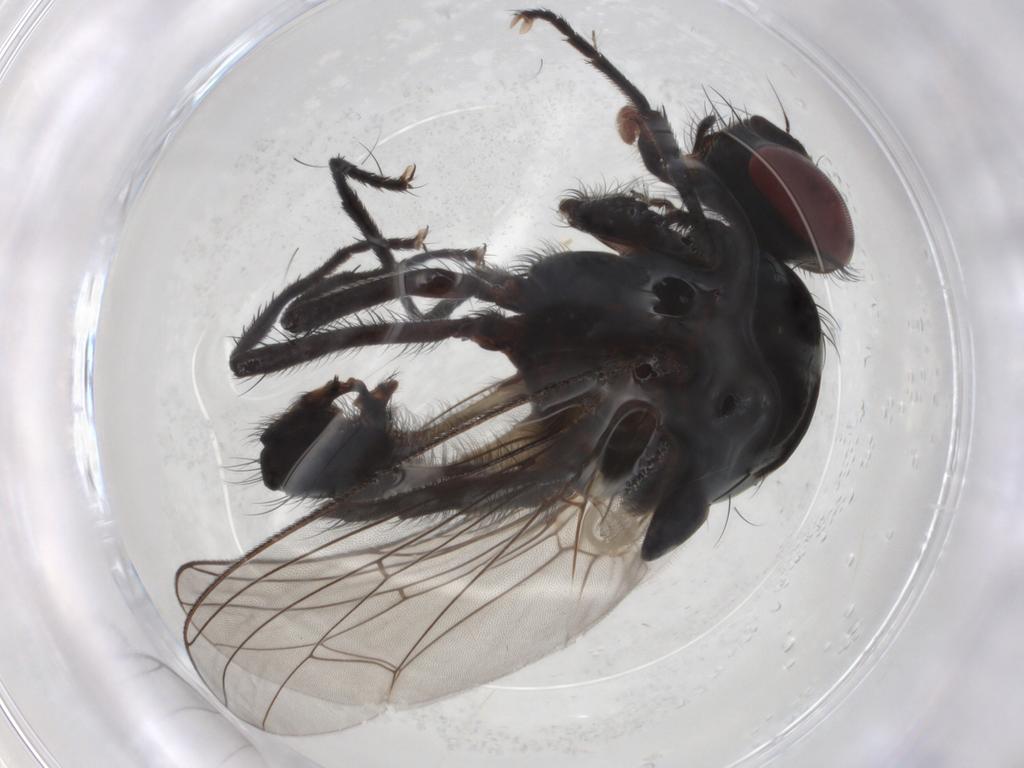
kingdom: Animalia
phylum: Arthropoda
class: Insecta
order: Diptera
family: Anthomyiidae
